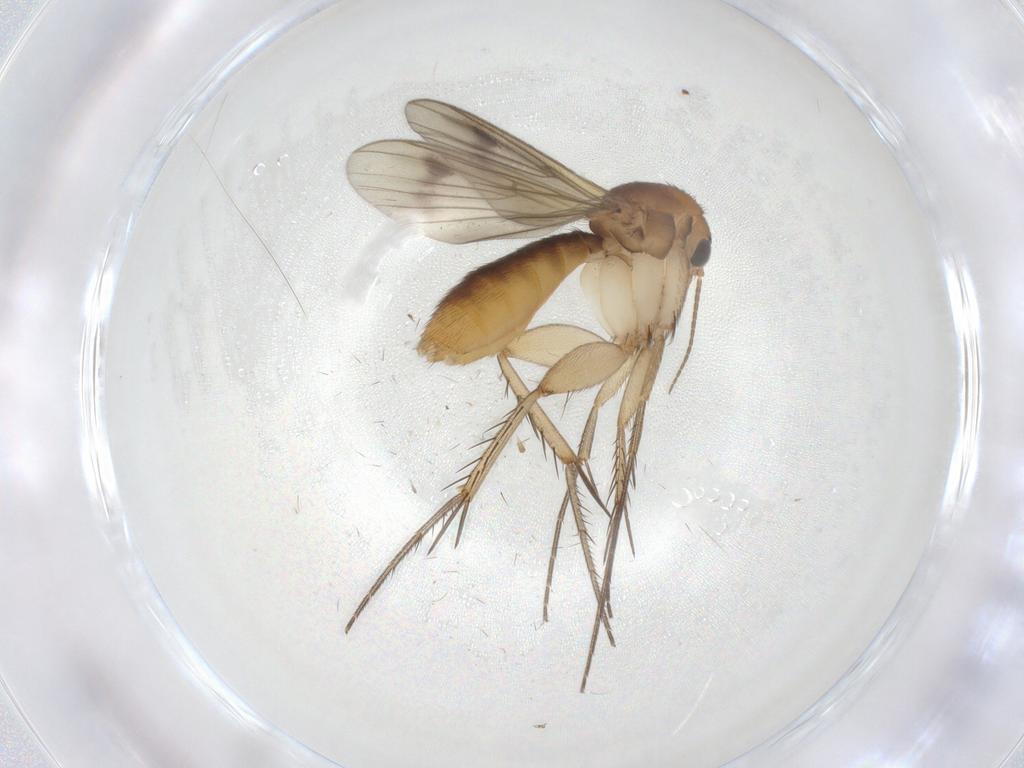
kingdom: Animalia
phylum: Arthropoda
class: Insecta
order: Diptera
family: Mycetophilidae
